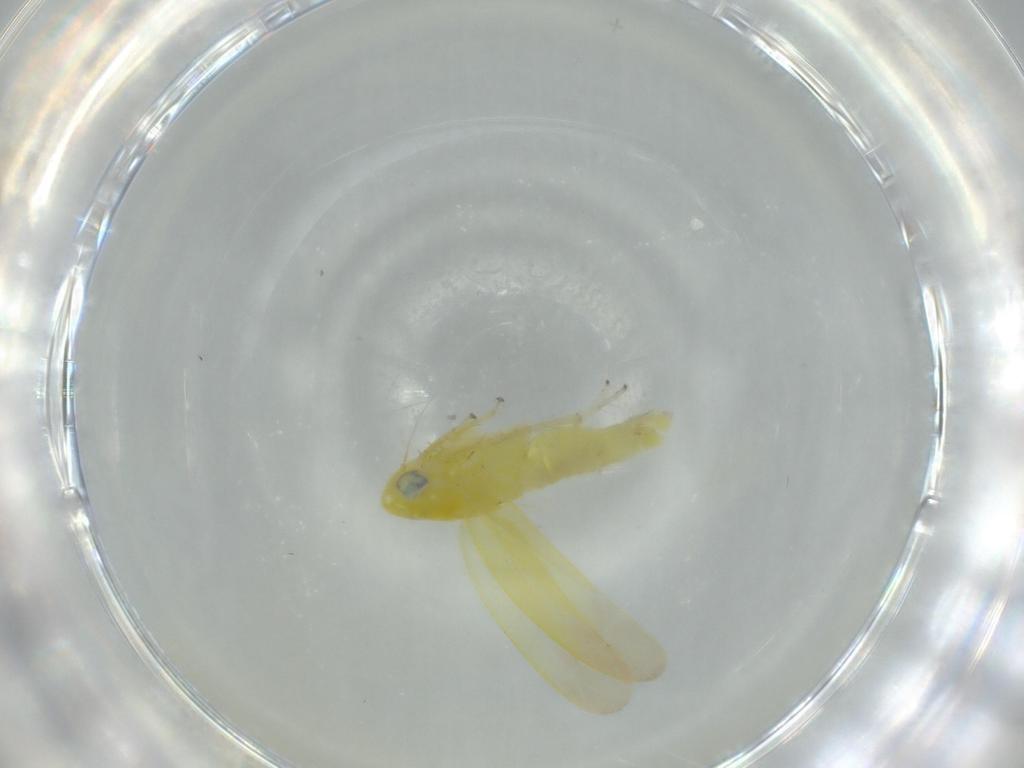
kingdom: Animalia
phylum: Arthropoda
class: Insecta
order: Hemiptera
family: Cicadellidae
